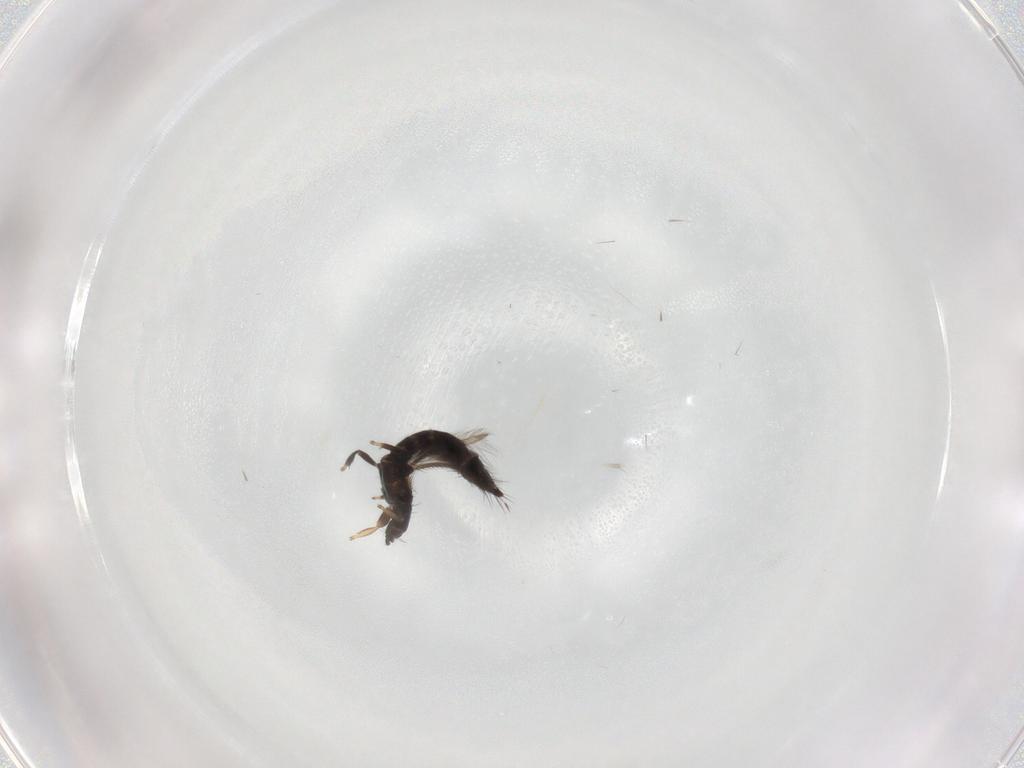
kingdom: Animalia
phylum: Arthropoda
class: Insecta
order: Thysanoptera
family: Thripidae
